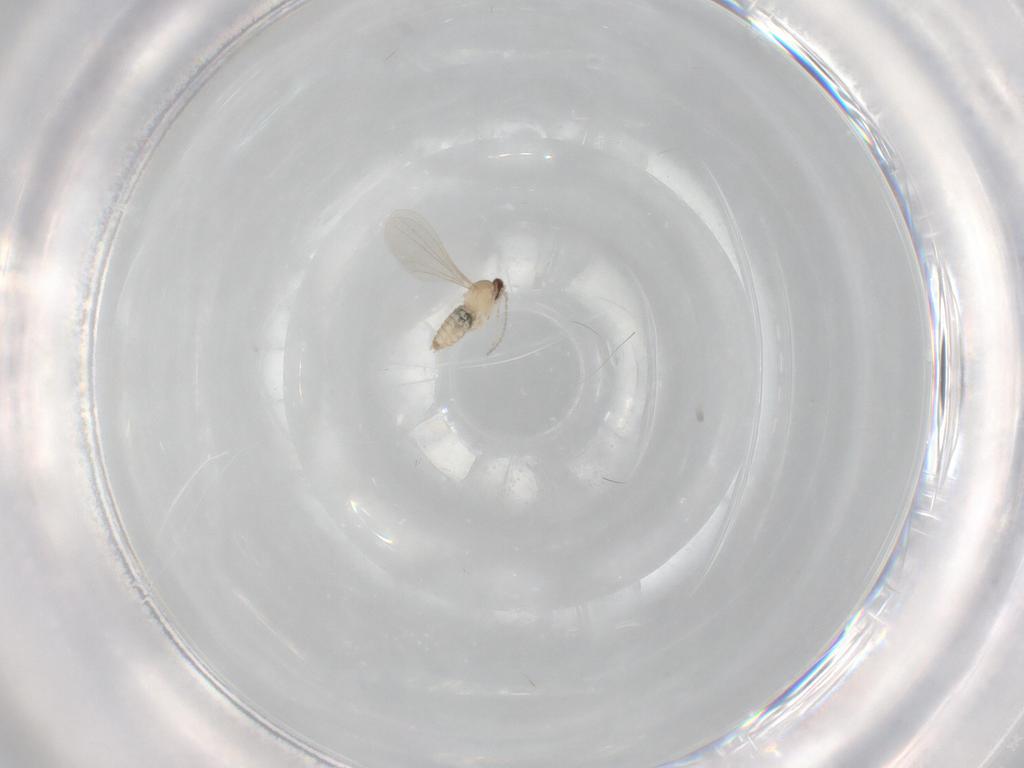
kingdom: Animalia
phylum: Arthropoda
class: Insecta
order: Diptera
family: Cecidomyiidae
